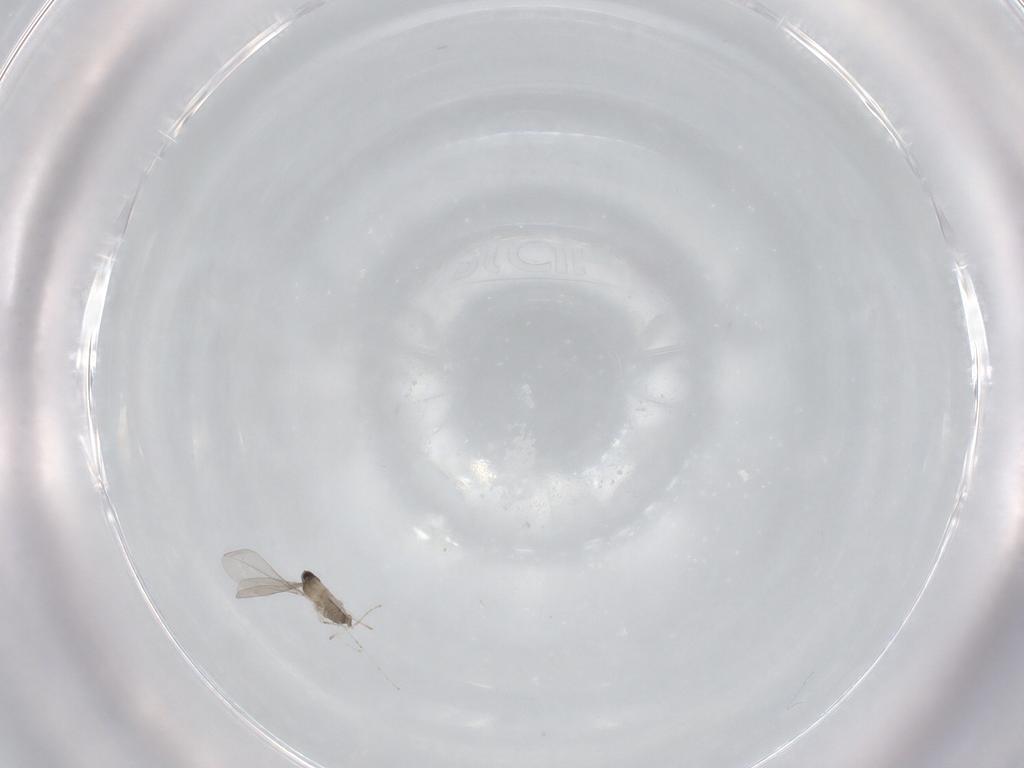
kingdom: Animalia
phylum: Arthropoda
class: Insecta
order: Diptera
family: Cecidomyiidae
